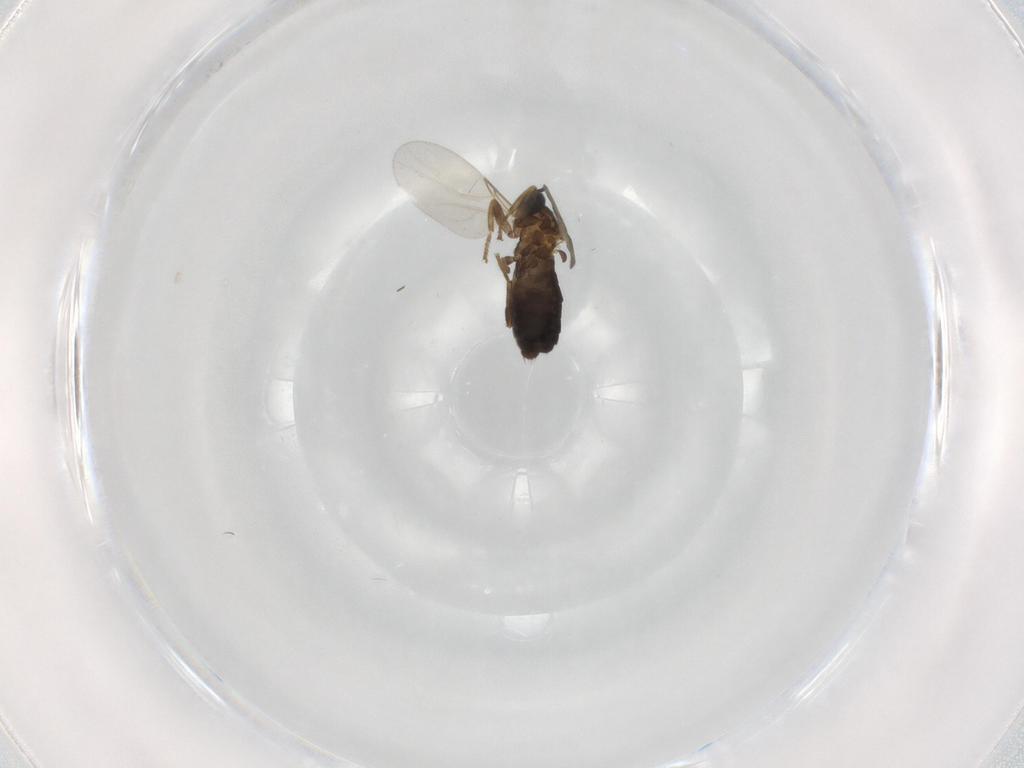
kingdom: Animalia
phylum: Arthropoda
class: Insecta
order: Diptera
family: Scatopsidae
